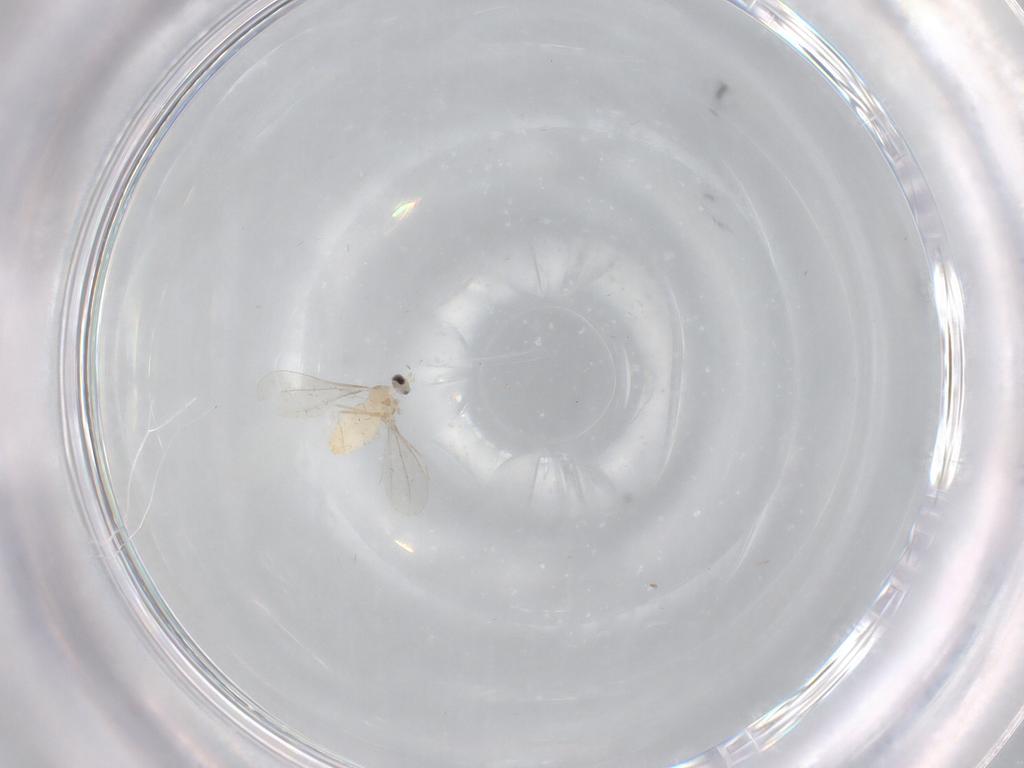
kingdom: Animalia
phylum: Arthropoda
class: Insecta
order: Diptera
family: Cecidomyiidae
